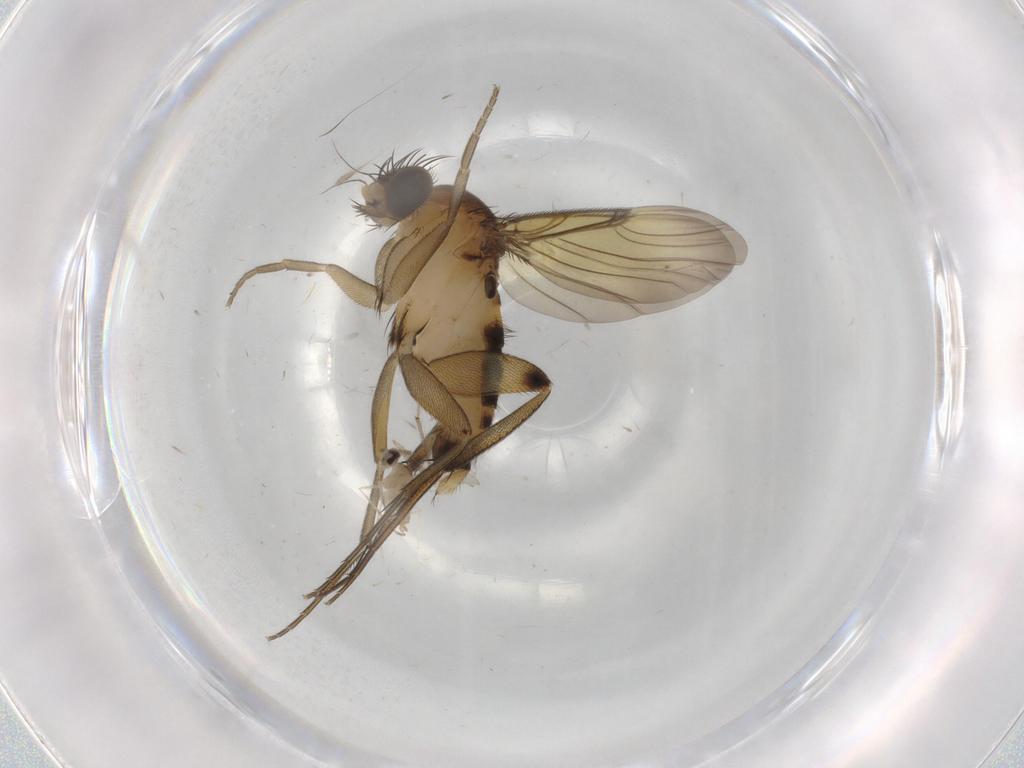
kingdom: Animalia
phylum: Arthropoda
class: Insecta
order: Diptera
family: Cecidomyiidae
